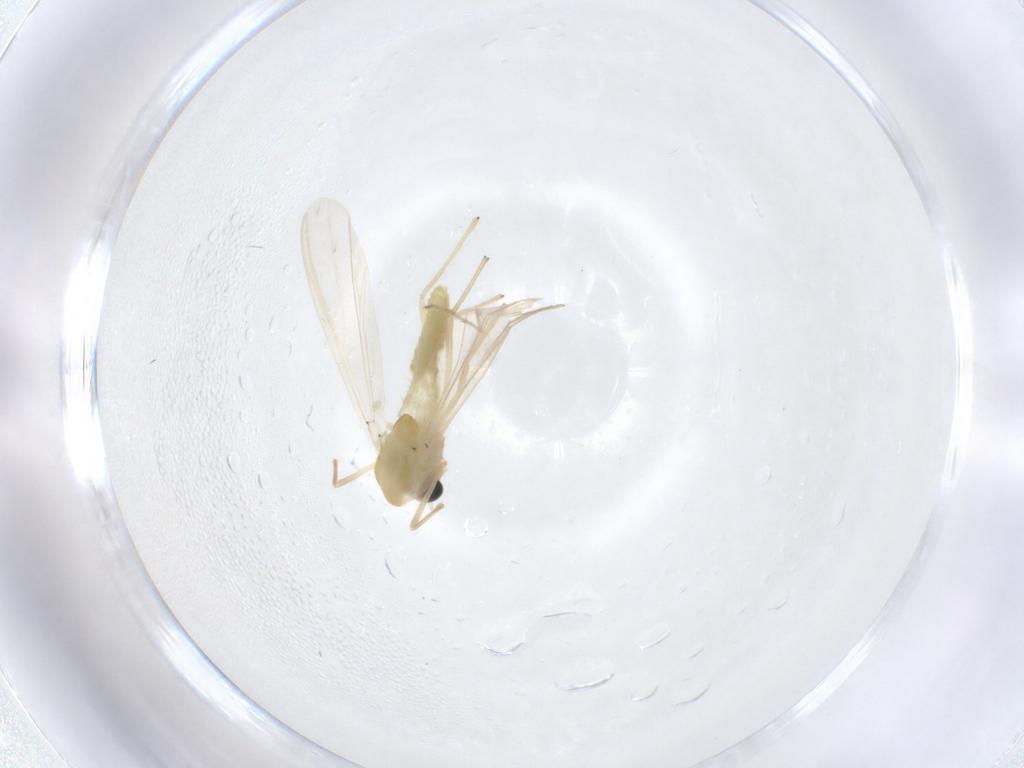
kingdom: Animalia
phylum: Arthropoda
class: Insecta
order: Diptera
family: Chironomidae
